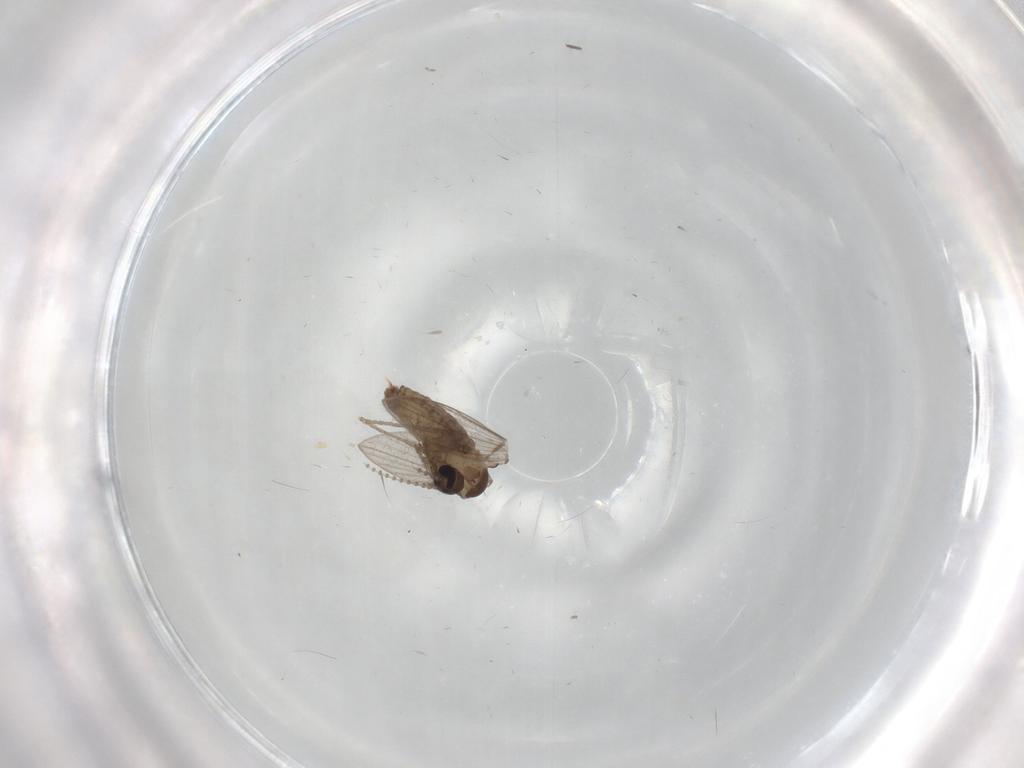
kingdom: Animalia
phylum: Arthropoda
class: Insecta
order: Diptera
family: Psychodidae
